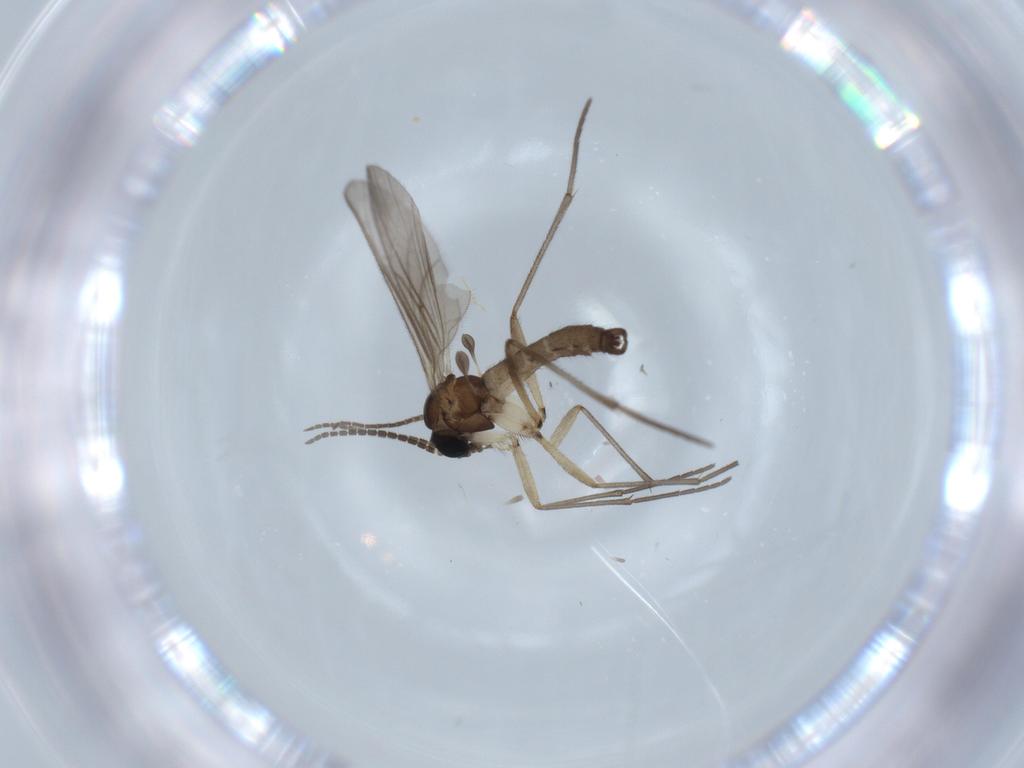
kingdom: Animalia
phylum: Arthropoda
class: Insecta
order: Diptera
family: Sciaridae
